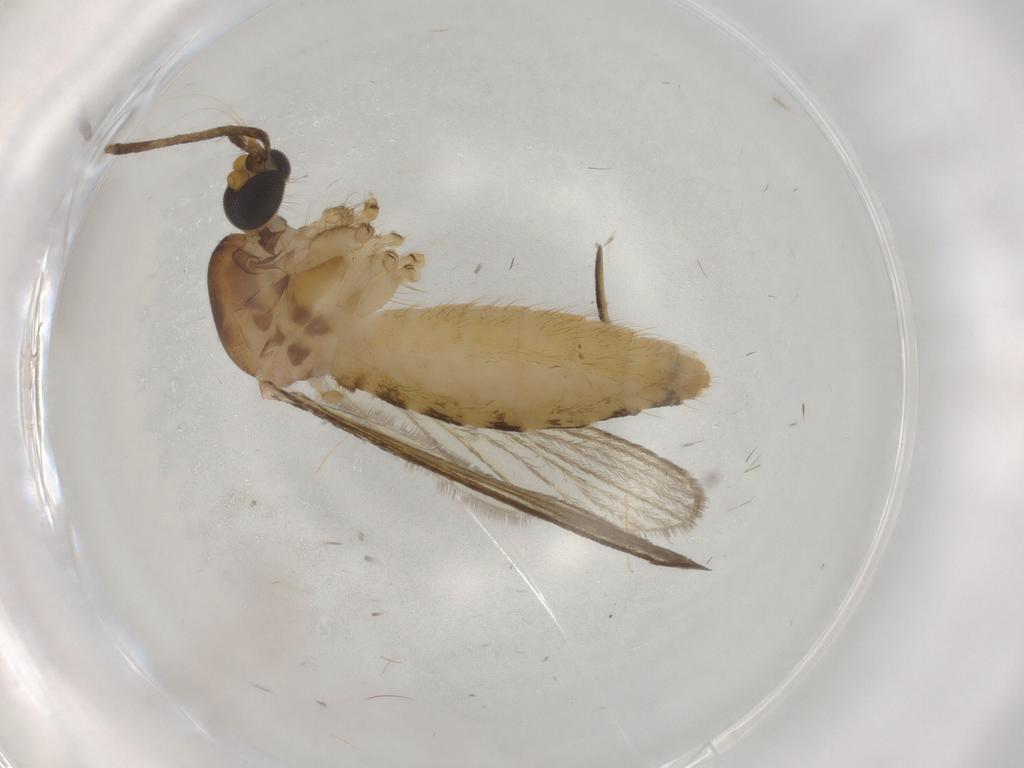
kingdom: Animalia
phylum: Arthropoda
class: Insecta
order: Diptera
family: Culicidae
